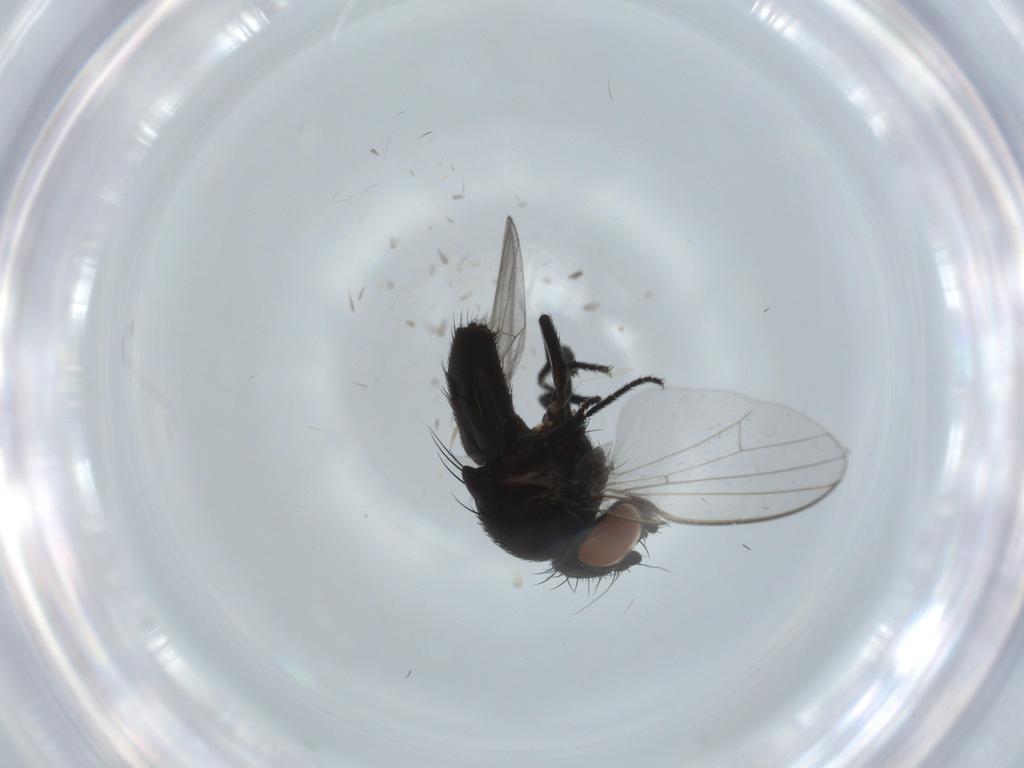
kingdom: Animalia
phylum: Arthropoda
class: Insecta
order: Diptera
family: Milichiidae
